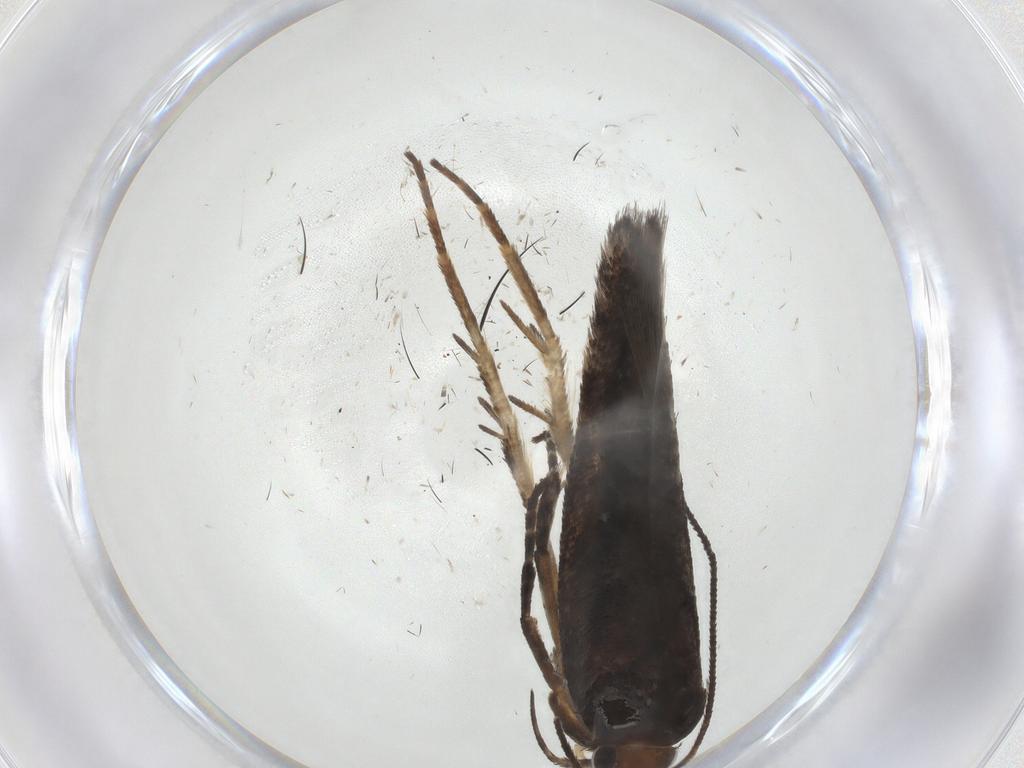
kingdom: Animalia
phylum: Arthropoda
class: Insecta
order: Lepidoptera
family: Gelechiidae
